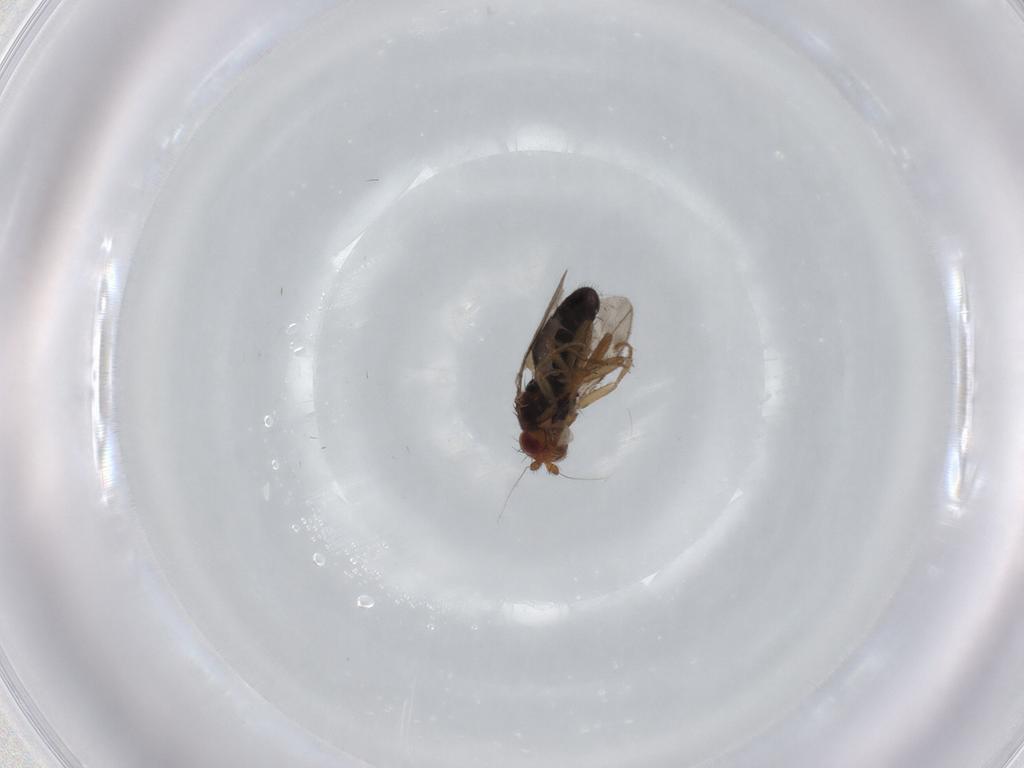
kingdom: Animalia
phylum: Arthropoda
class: Insecta
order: Diptera
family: Sphaeroceridae
